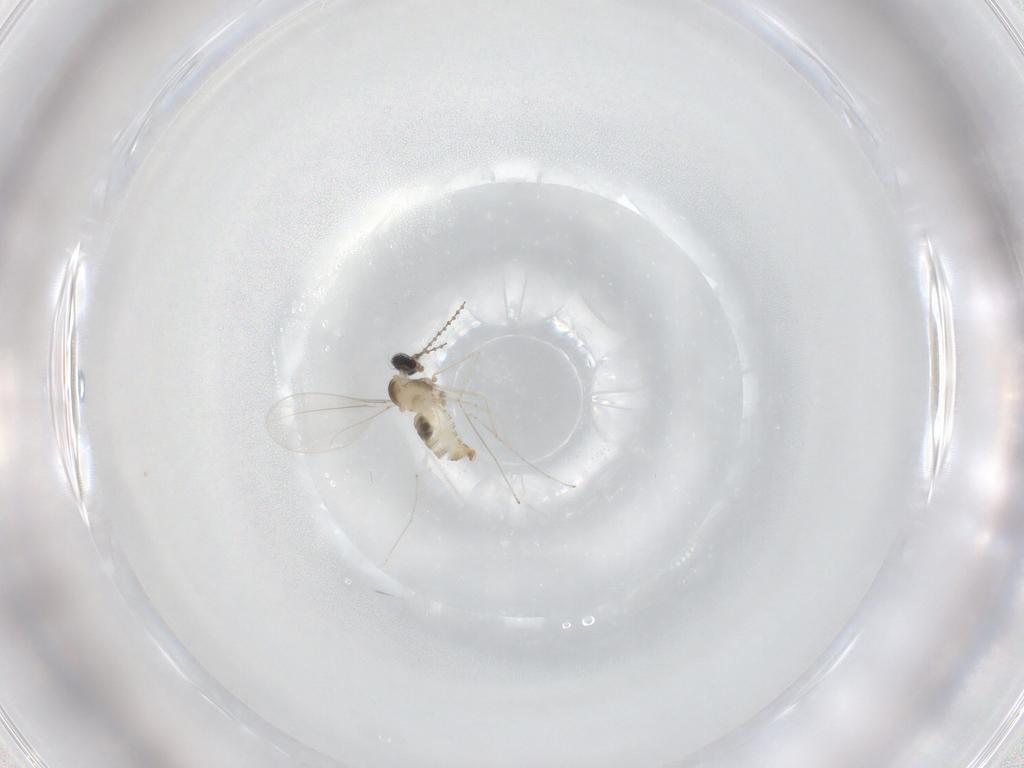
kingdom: Animalia
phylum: Arthropoda
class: Insecta
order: Diptera
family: Cecidomyiidae
